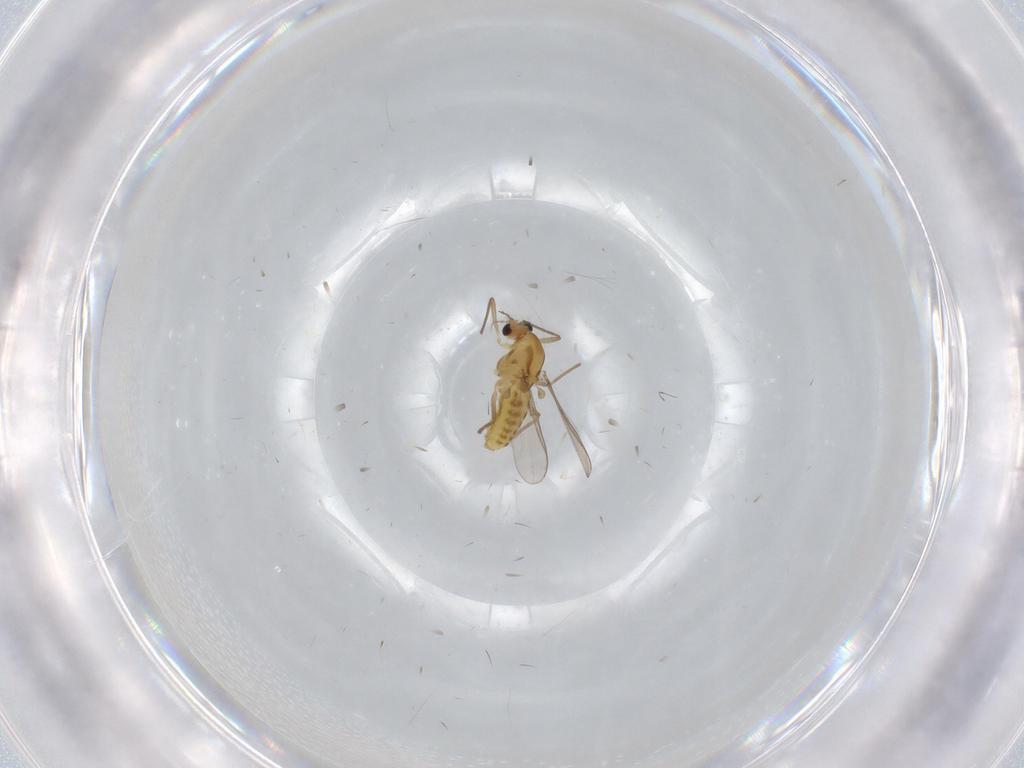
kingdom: Animalia
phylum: Arthropoda
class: Insecta
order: Diptera
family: Chironomidae
